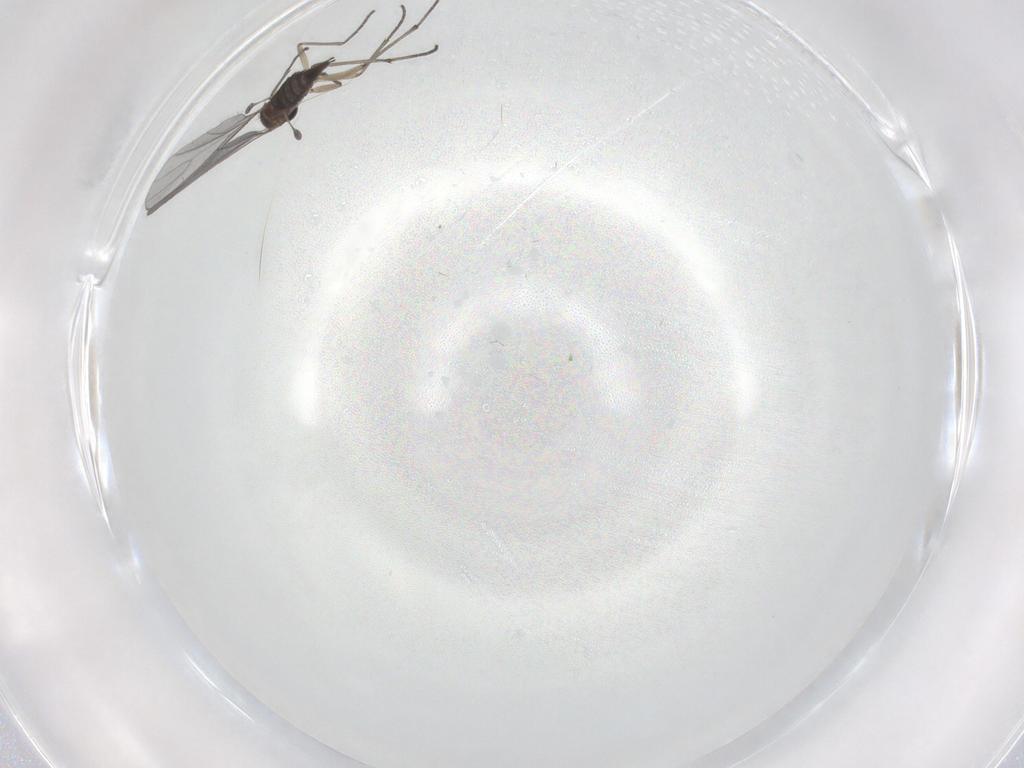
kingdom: Animalia
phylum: Arthropoda
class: Insecta
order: Diptera
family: Sciaridae
